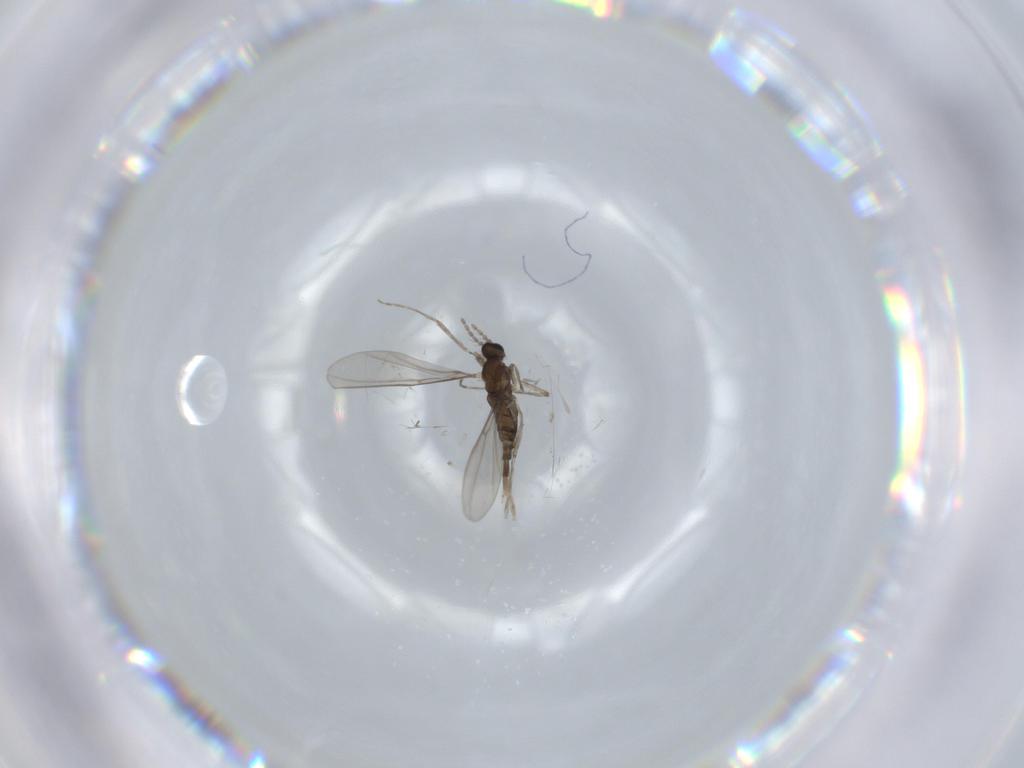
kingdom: Animalia
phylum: Arthropoda
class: Insecta
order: Diptera
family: Cecidomyiidae
